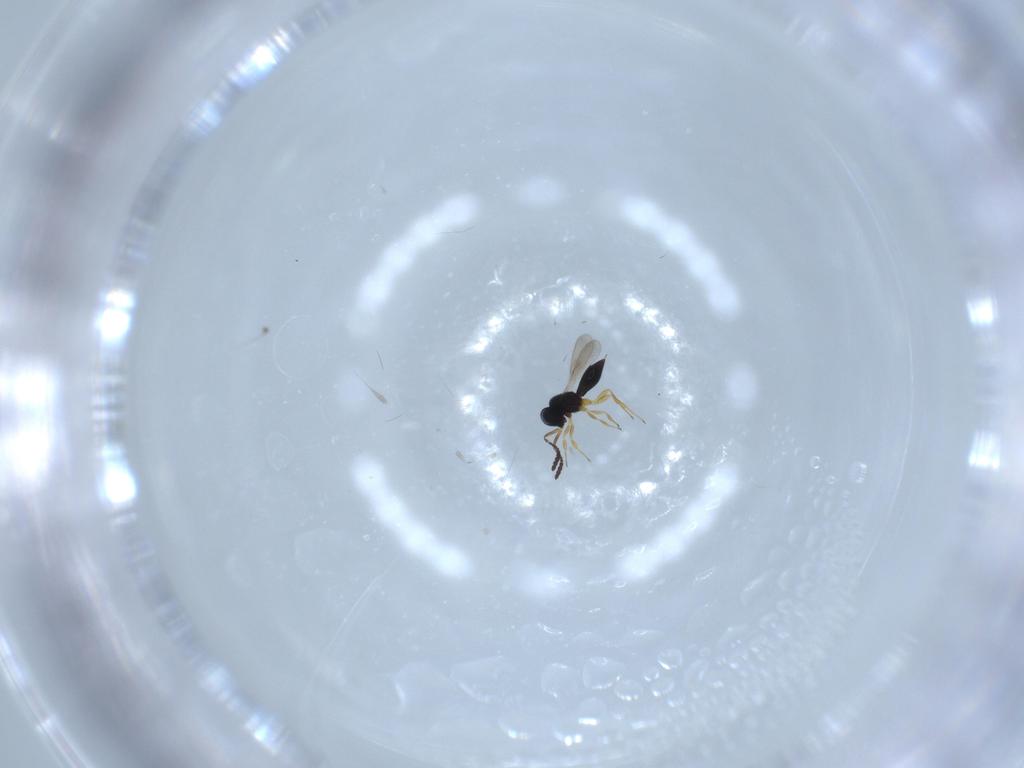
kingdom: Animalia
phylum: Arthropoda
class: Insecta
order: Hymenoptera
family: Scelionidae
